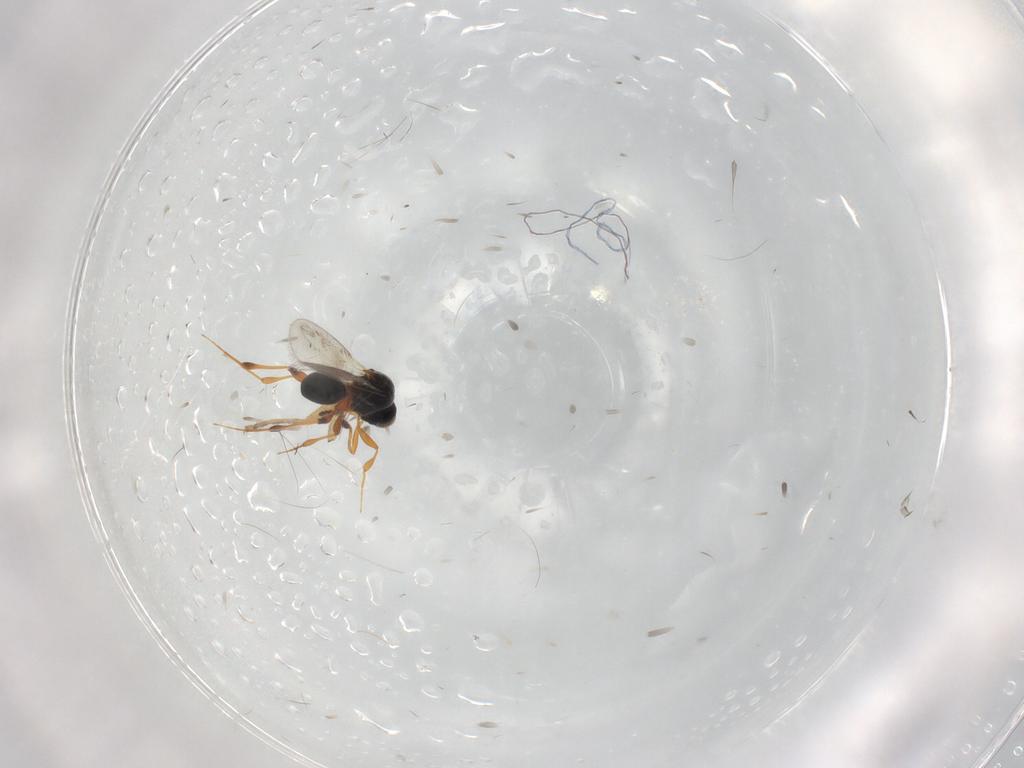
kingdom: Animalia
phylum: Arthropoda
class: Insecta
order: Hymenoptera
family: Platygastridae
